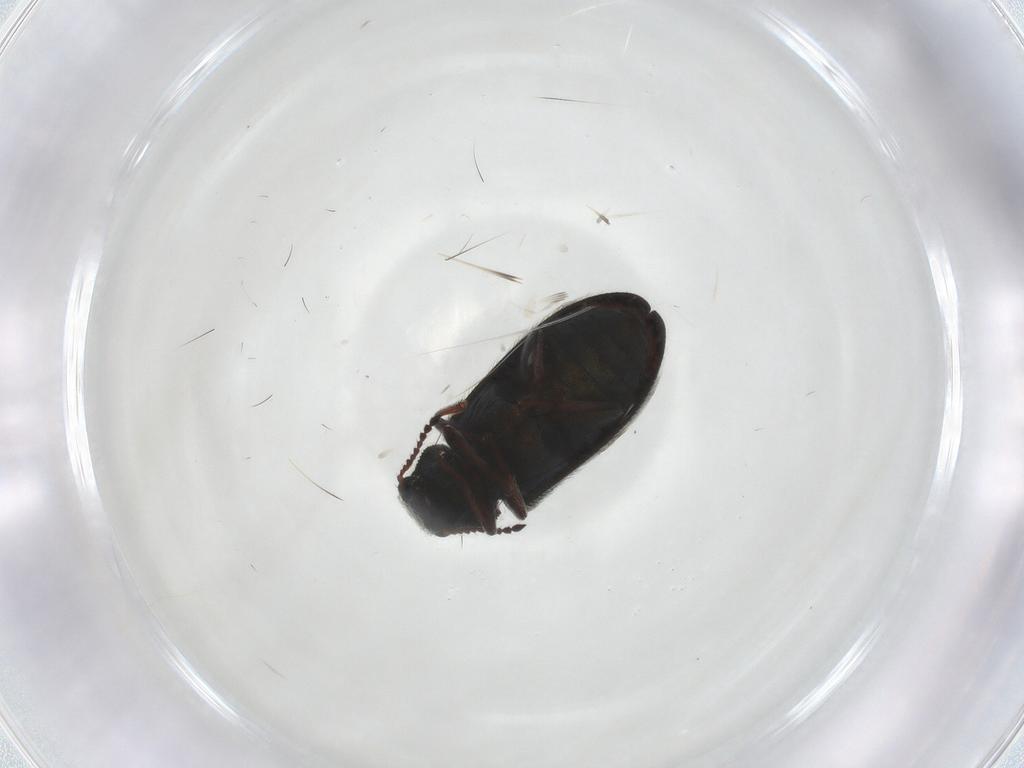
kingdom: Animalia
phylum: Arthropoda
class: Insecta
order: Coleoptera
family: Melyridae
